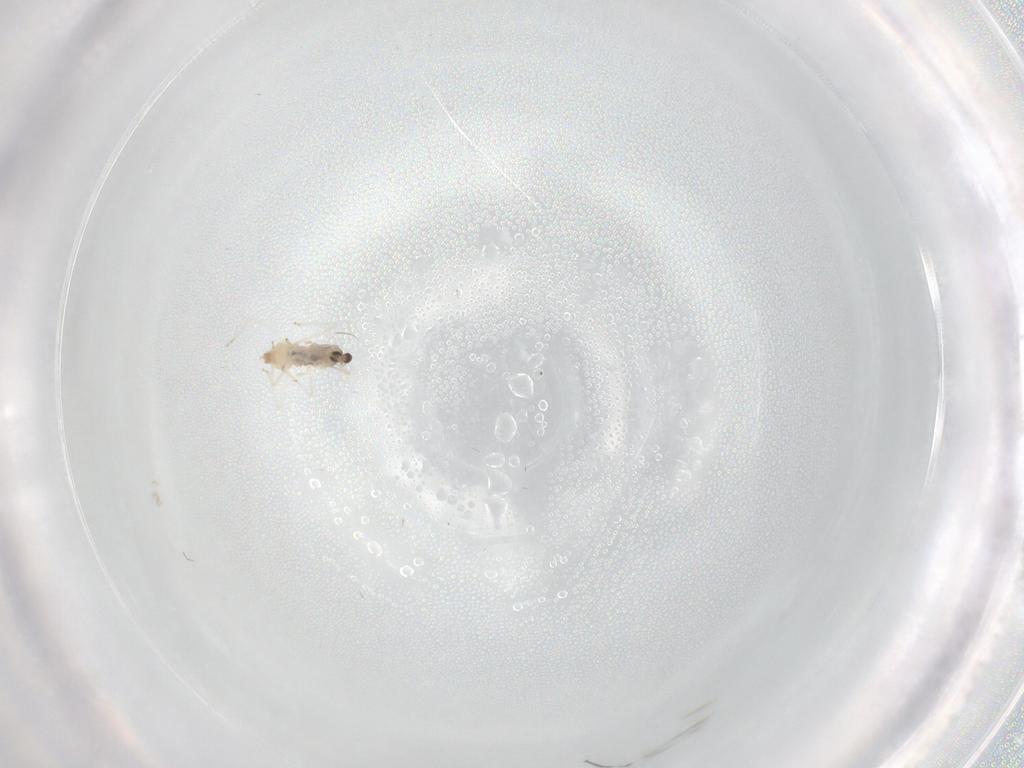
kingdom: Animalia
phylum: Arthropoda
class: Insecta
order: Diptera
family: Cecidomyiidae
